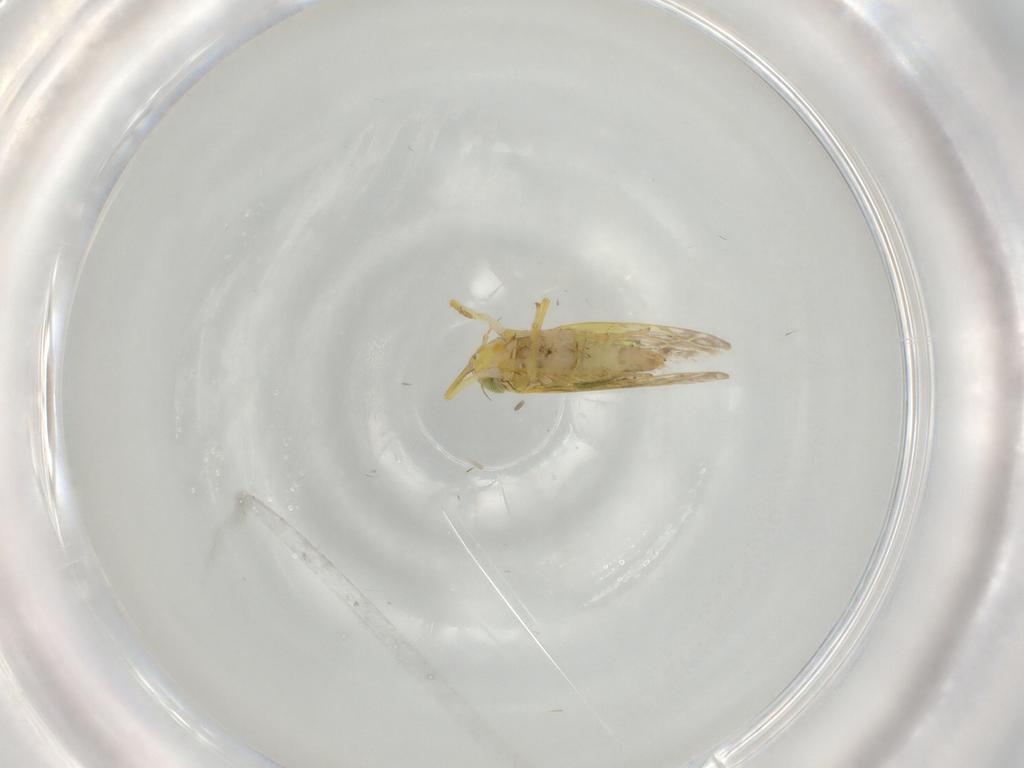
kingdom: Animalia
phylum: Arthropoda
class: Insecta
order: Hemiptera
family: Cicadellidae
